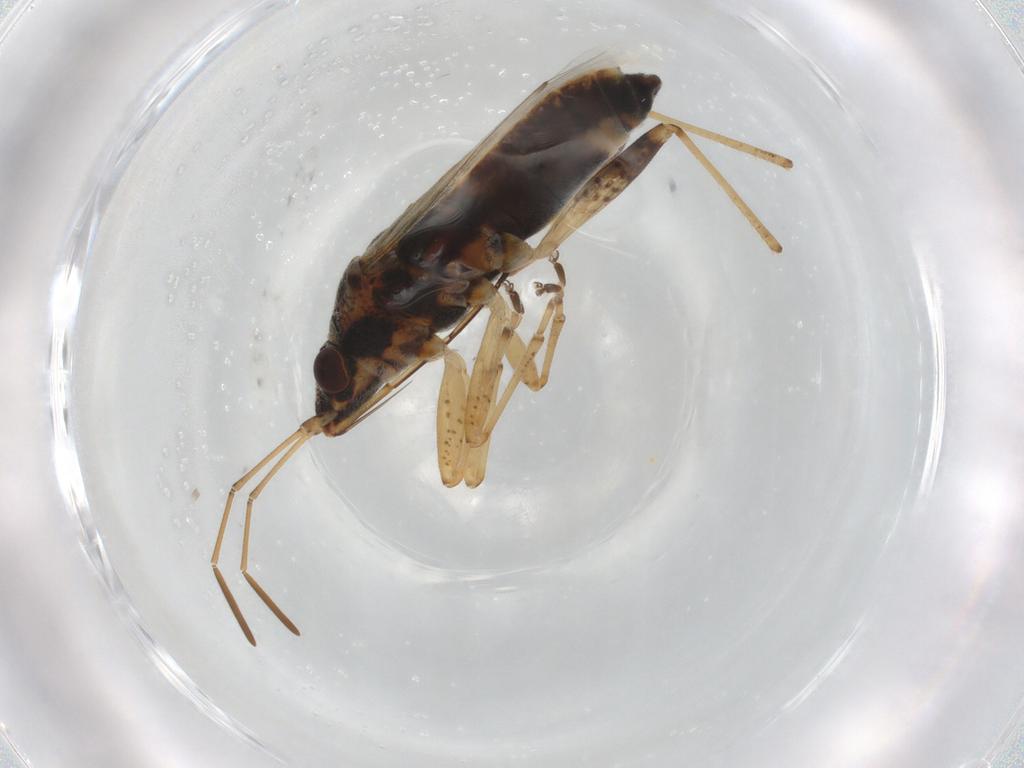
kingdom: Animalia
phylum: Arthropoda
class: Insecta
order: Hemiptera
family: Lygaeidae
